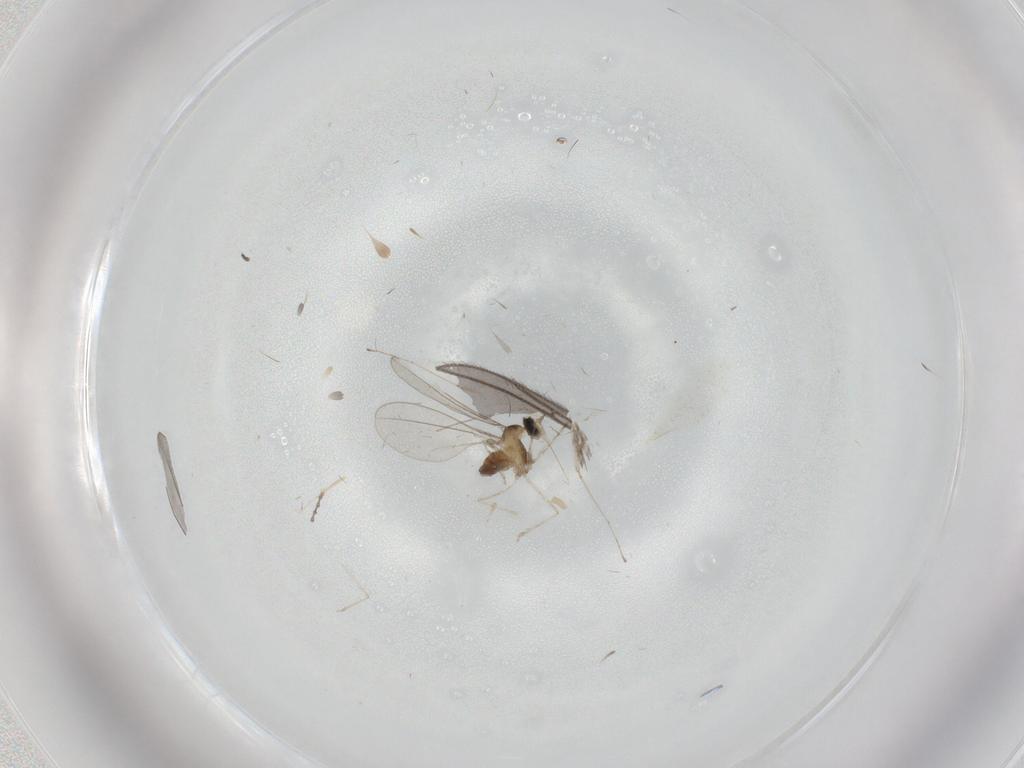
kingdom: Animalia
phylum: Arthropoda
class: Insecta
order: Diptera
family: Cecidomyiidae
